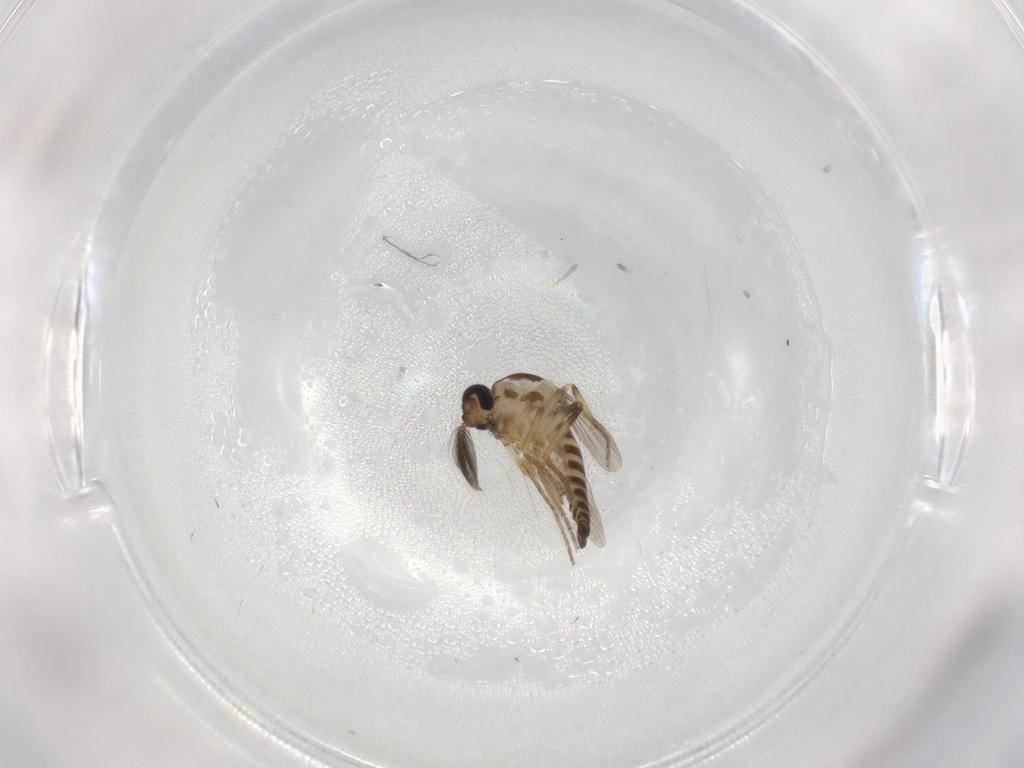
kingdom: Animalia
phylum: Arthropoda
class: Insecta
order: Diptera
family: Ceratopogonidae
